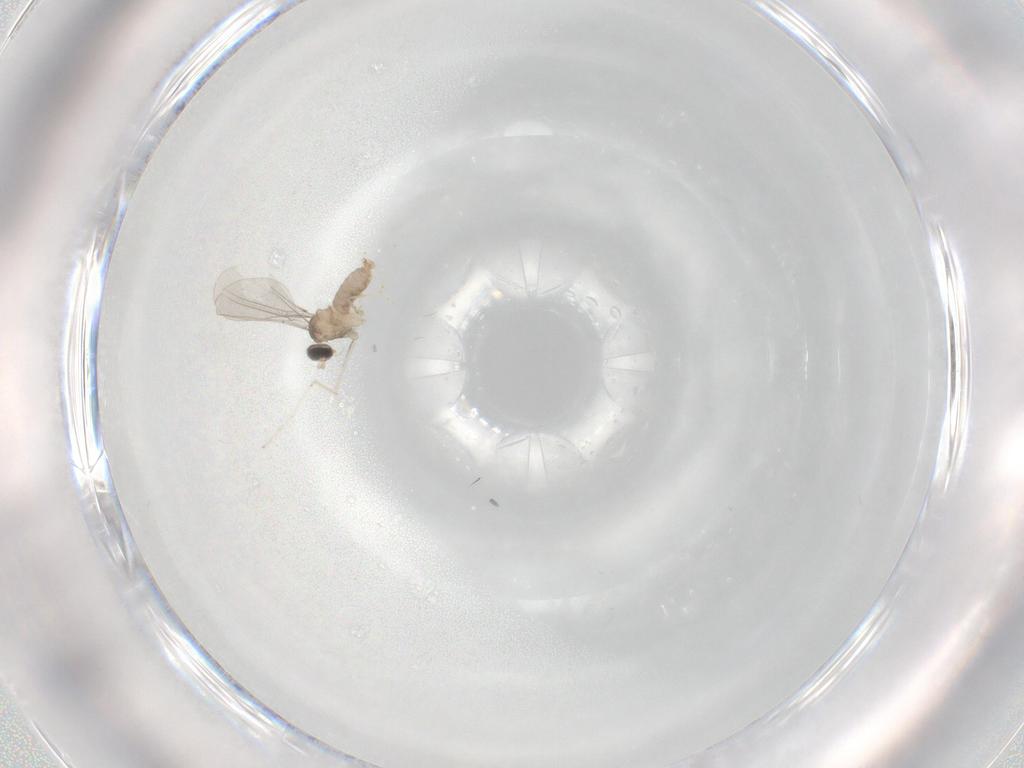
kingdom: Animalia
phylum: Arthropoda
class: Insecta
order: Diptera
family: Cecidomyiidae
